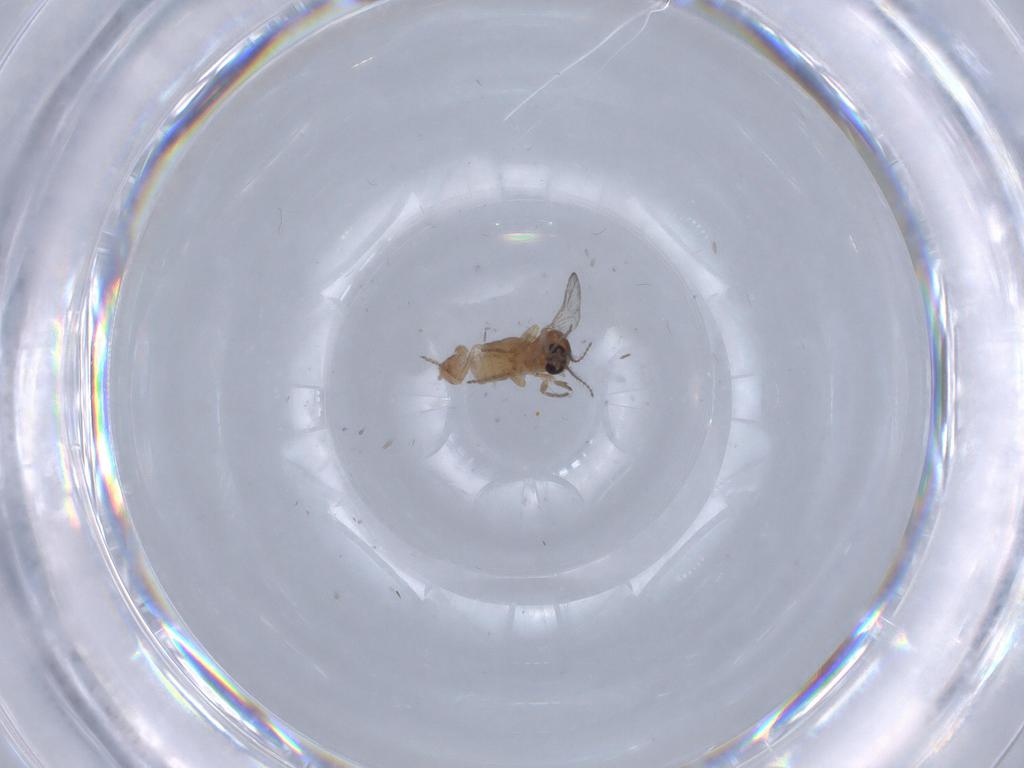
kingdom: Animalia
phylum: Arthropoda
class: Insecta
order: Diptera
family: Ceratopogonidae
